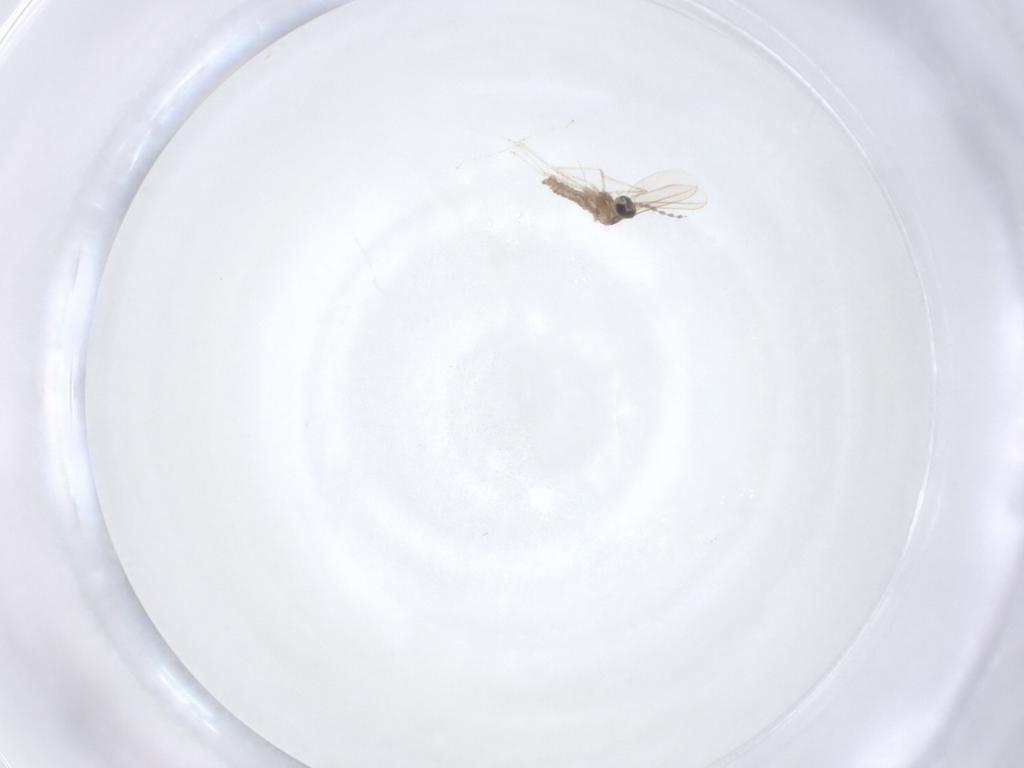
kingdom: Animalia
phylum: Arthropoda
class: Insecta
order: Diptera
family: Cecidomyiidae
